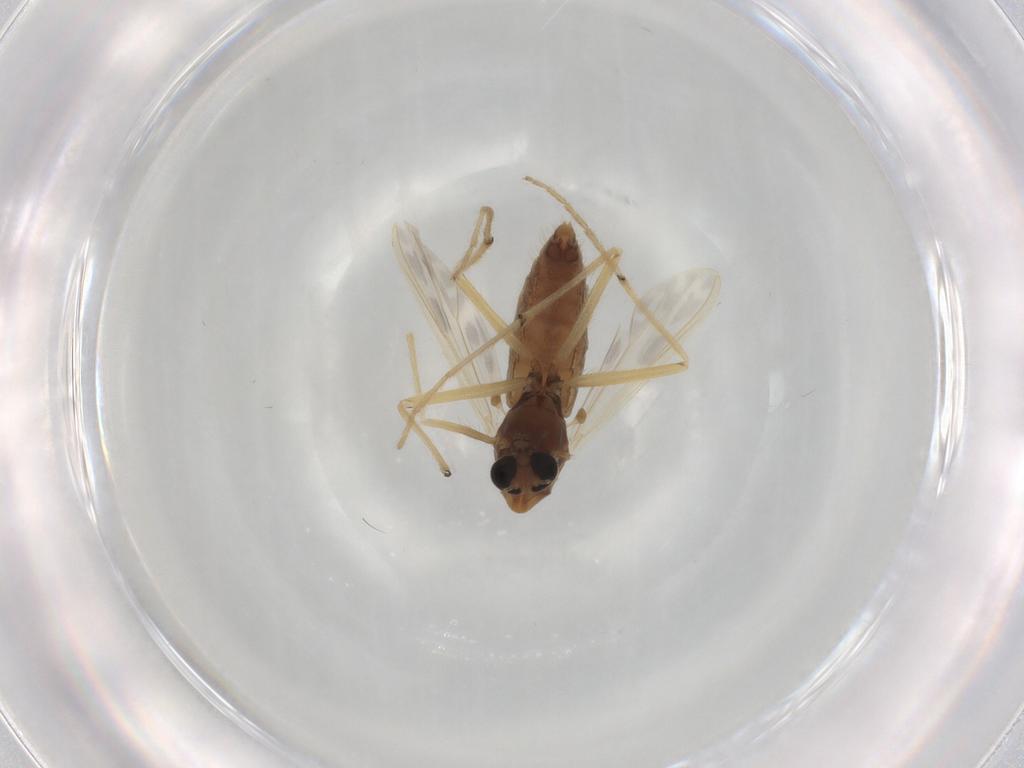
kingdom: Animalia
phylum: Arthropoda
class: Insecta
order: Diptera
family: Chironomidae
